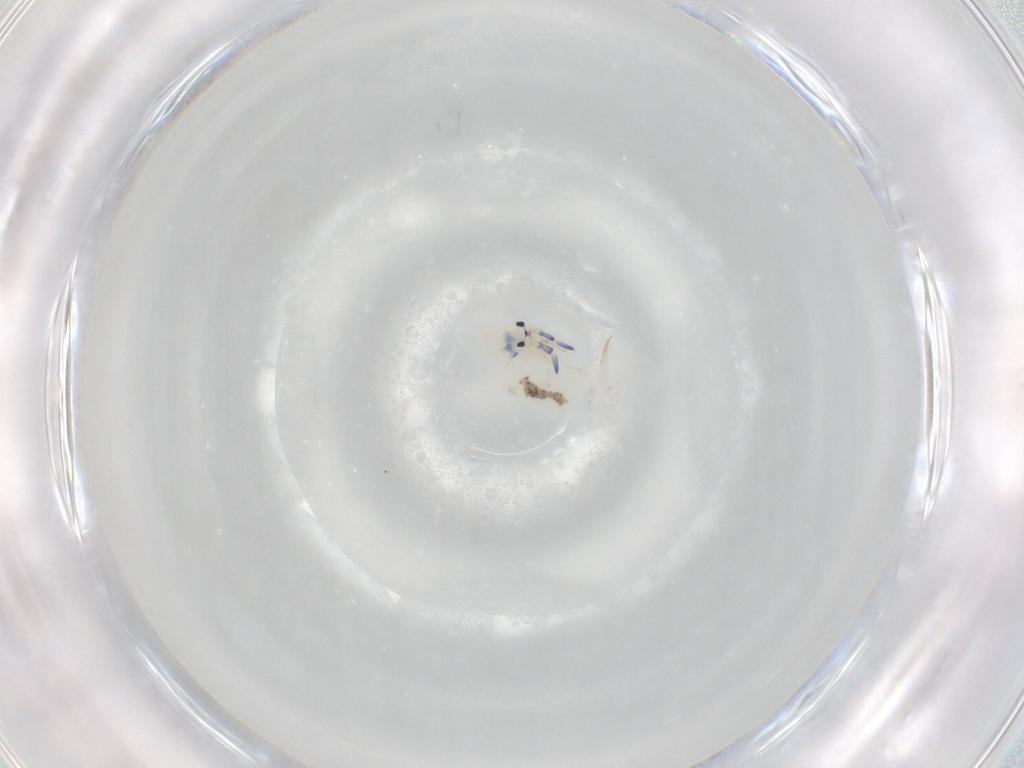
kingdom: Animalia
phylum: Arthropoda
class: Collembola
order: Entomobryomorpha
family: Entomobryidae
